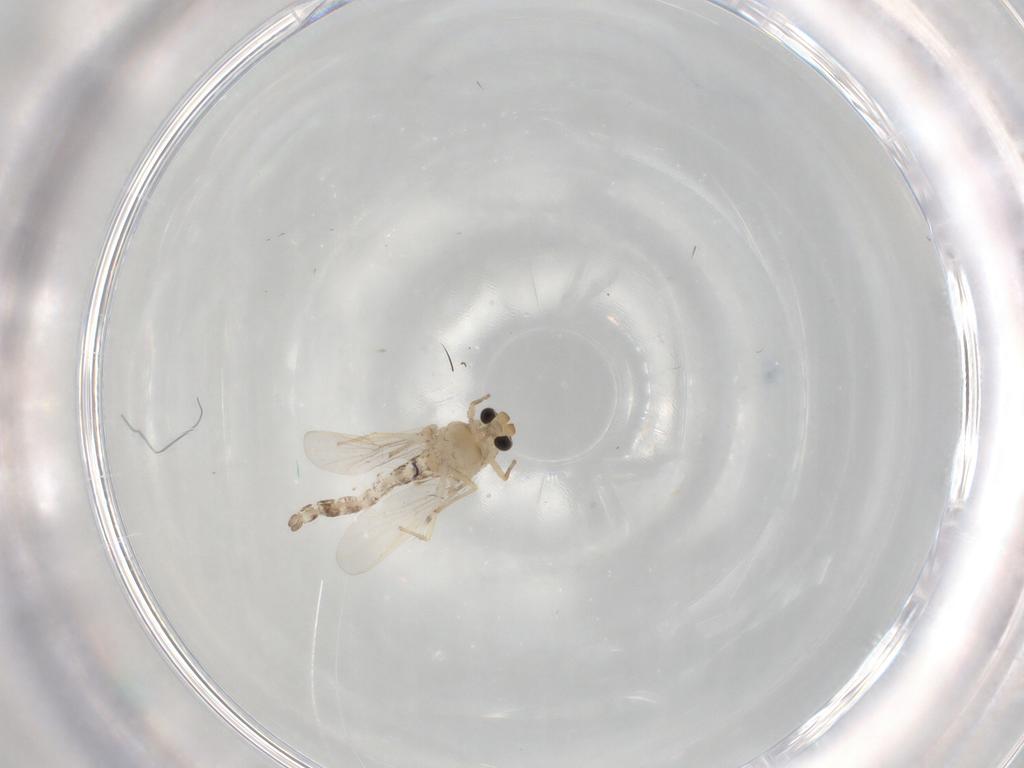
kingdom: Animalia
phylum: Arthropoda
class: Insecta
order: Diptera
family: Chironomidae
